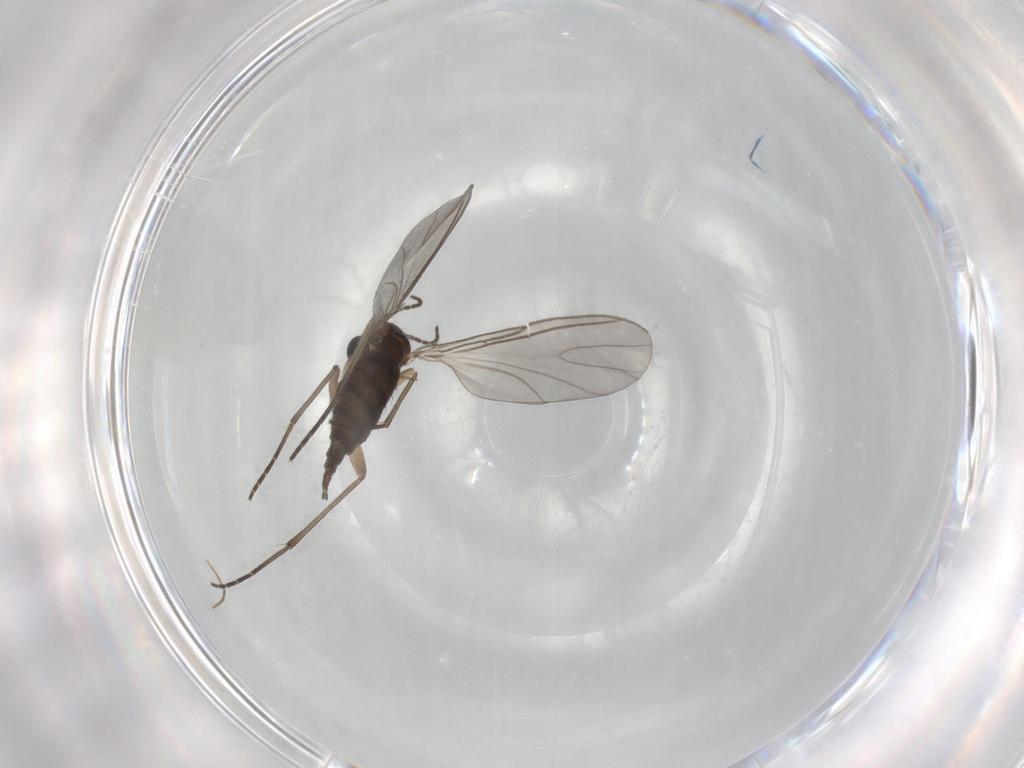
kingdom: Animalia
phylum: Arthropoda
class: Insecta
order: Diptera
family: Sciaridae
